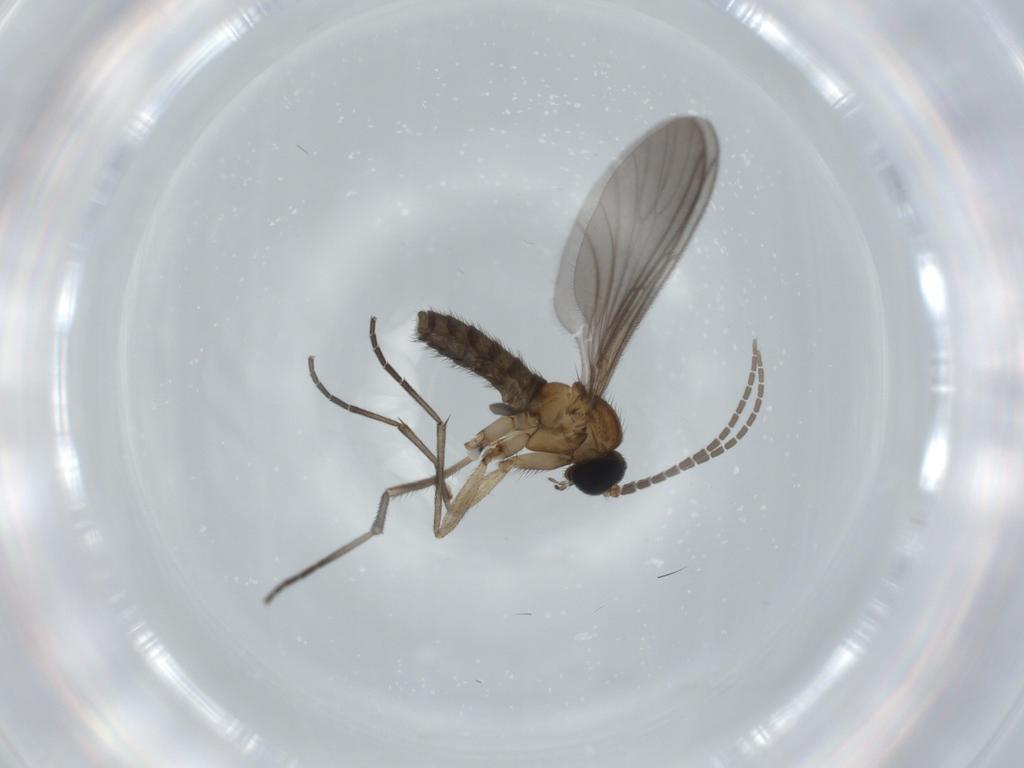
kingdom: Animalia
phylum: Arthropoda
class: Insecta
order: Diptera
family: Sciaridae
